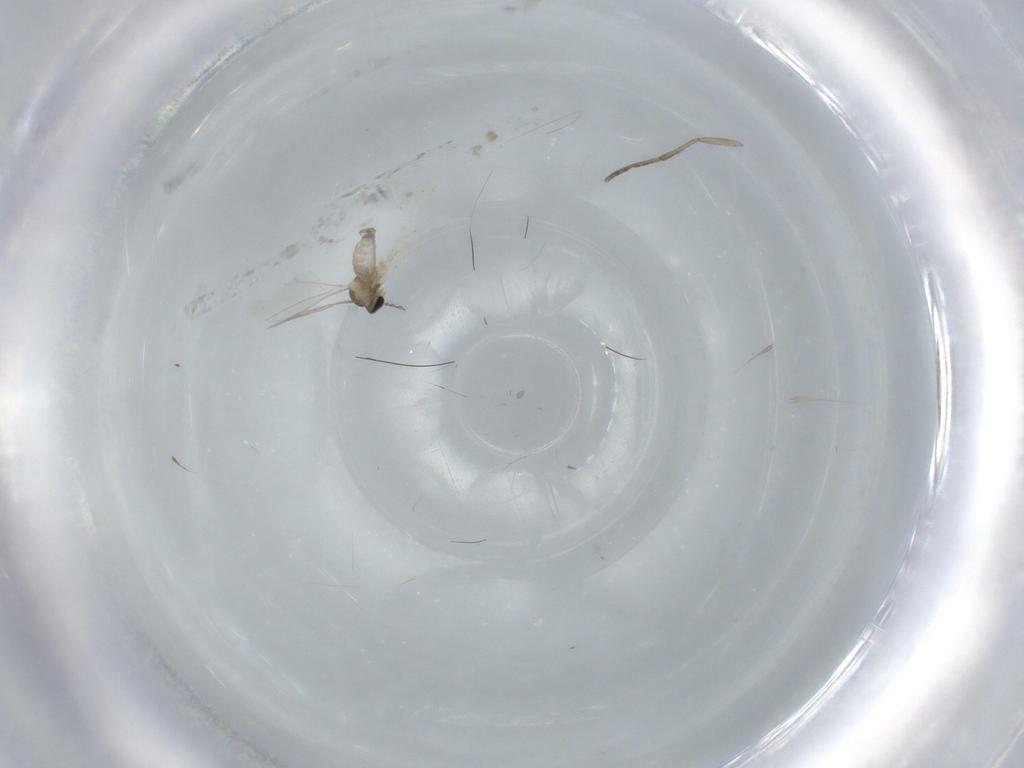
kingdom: Animalia
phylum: Arthropoda
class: Insecta
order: Diptera
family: Cecidomyiidae
